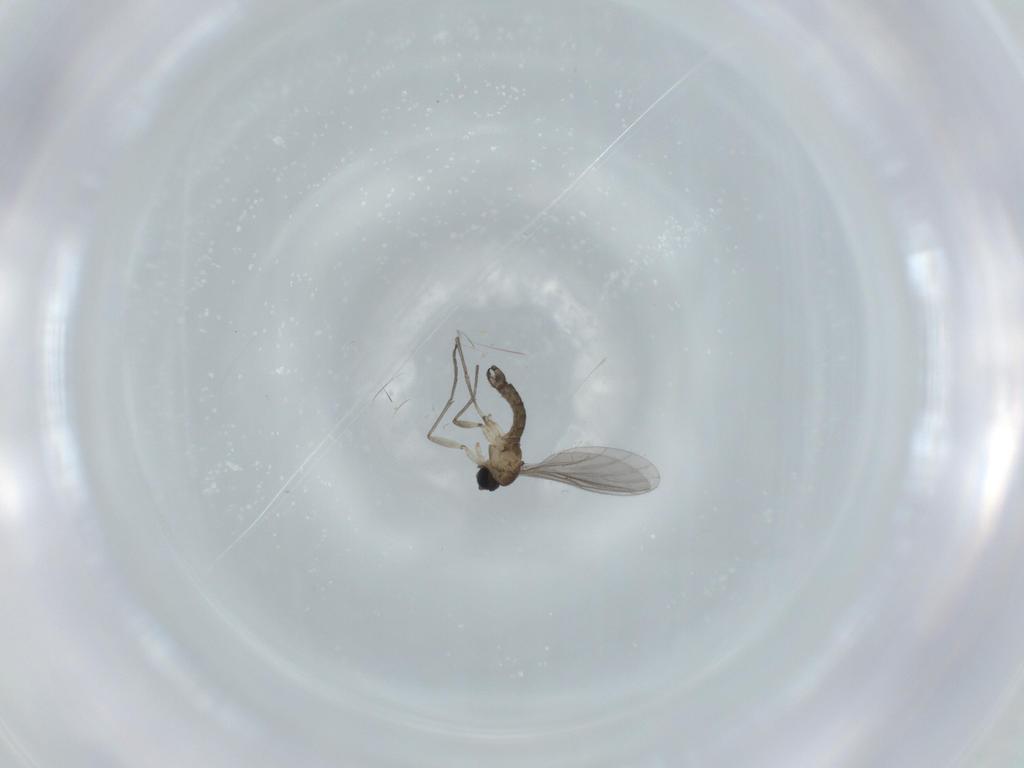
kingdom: Animalia
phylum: Arthropoda
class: Insecta
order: Diptera
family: Sciaridae
